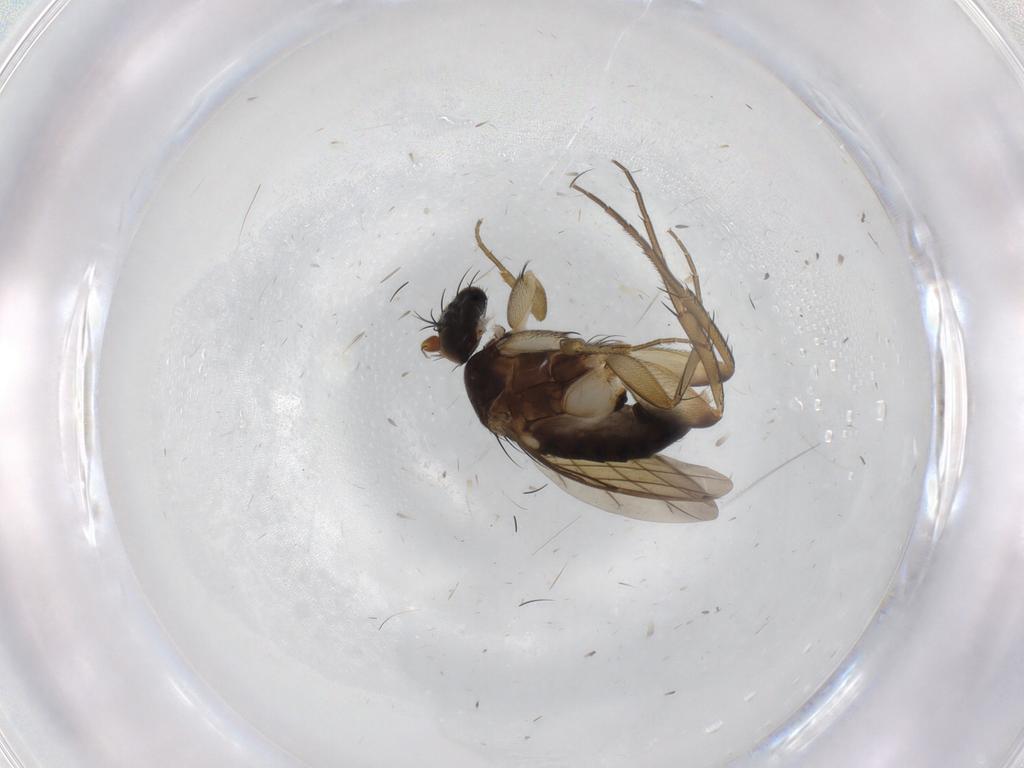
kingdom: Animalia
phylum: Arthropoda
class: Insecta
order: Diptera
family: Phoridae
